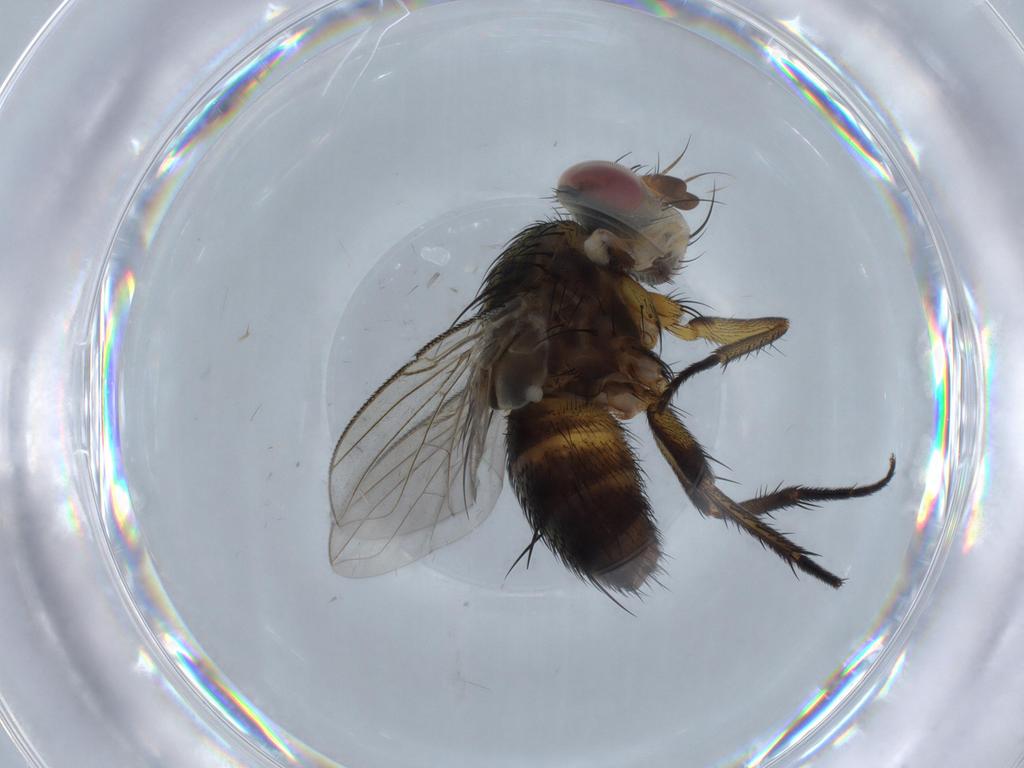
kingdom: Animalia
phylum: Arthropoda
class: Insecta
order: Diptera
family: Chironomidae
